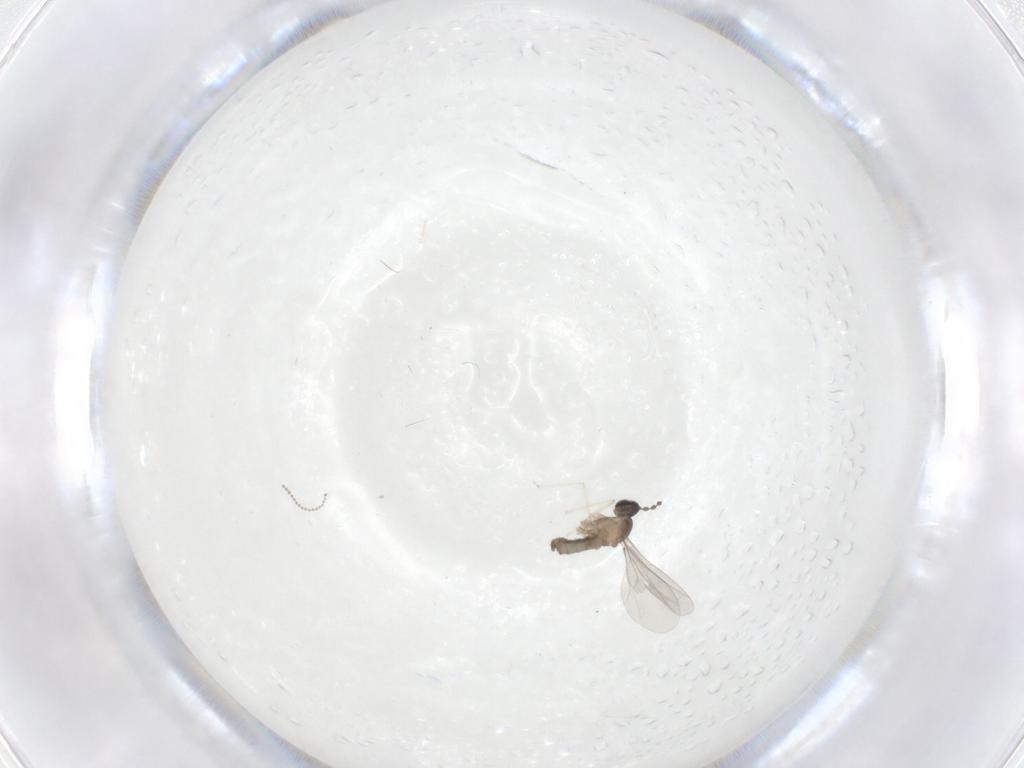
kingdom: Animalia
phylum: Arthropoda
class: Insecta
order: Diptera
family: Cecidomyiidae
